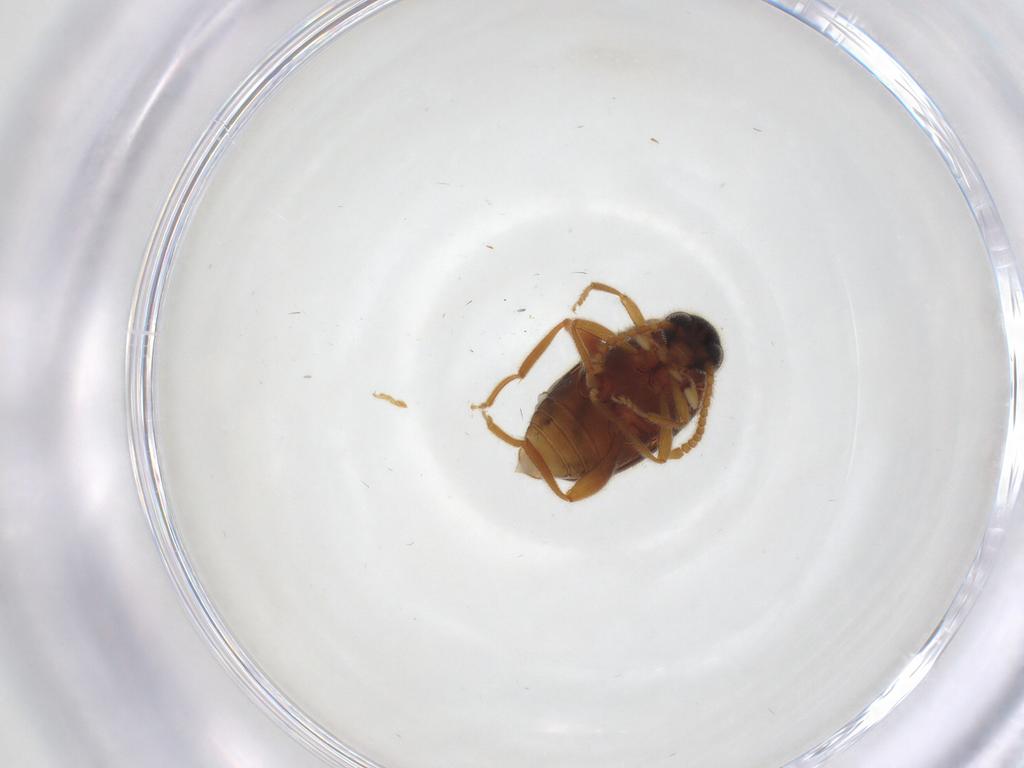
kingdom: Animalia
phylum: Arthropoda
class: Insecta
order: Coleoptera
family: Aderidae
